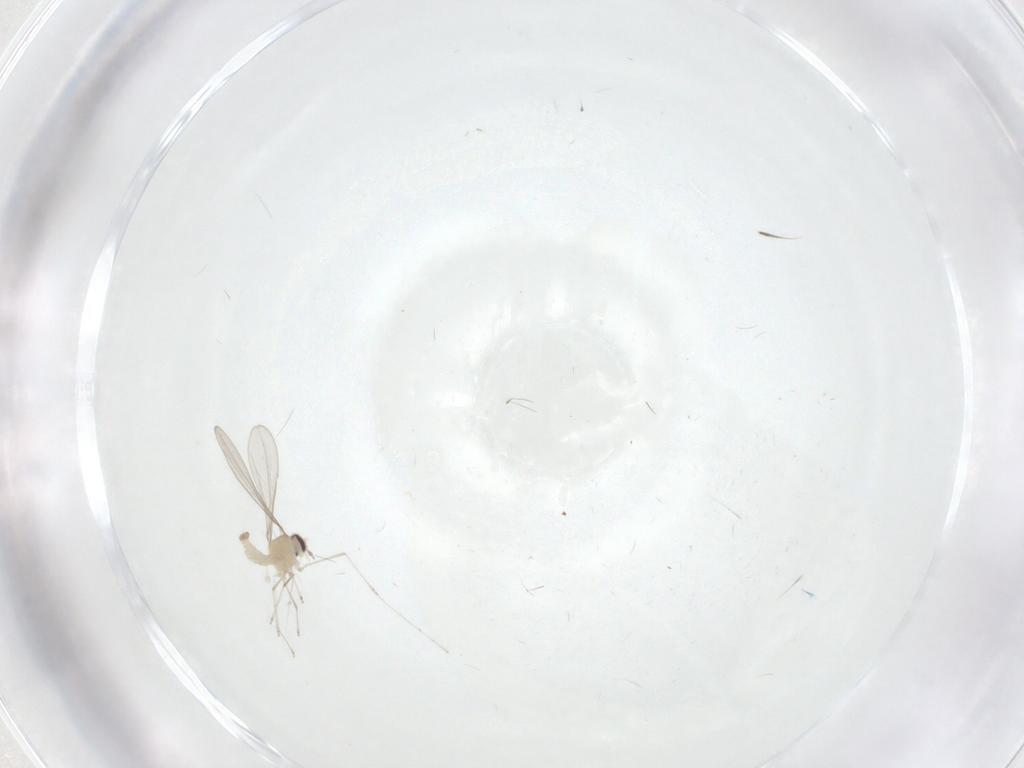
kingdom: Animalia
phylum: Arthropoda
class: Insecta
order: Diptera
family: Cecidomyiidae
